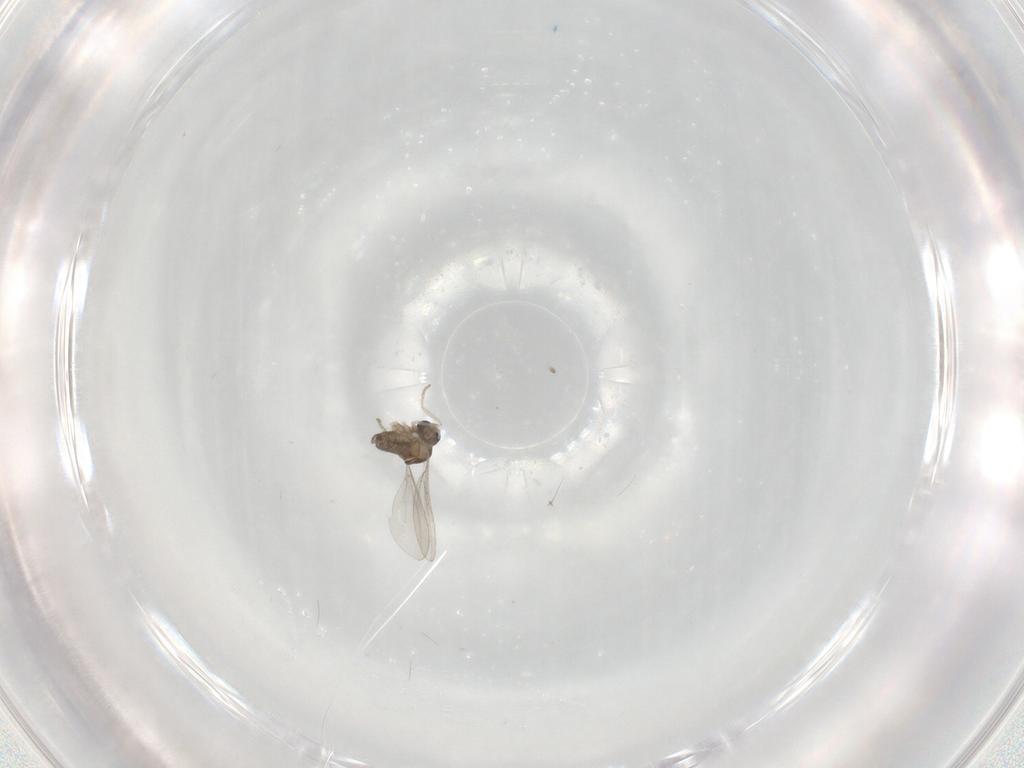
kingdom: Animalia
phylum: Arthropoda
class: Insecta
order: Diptera
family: Cecidomyiidae
